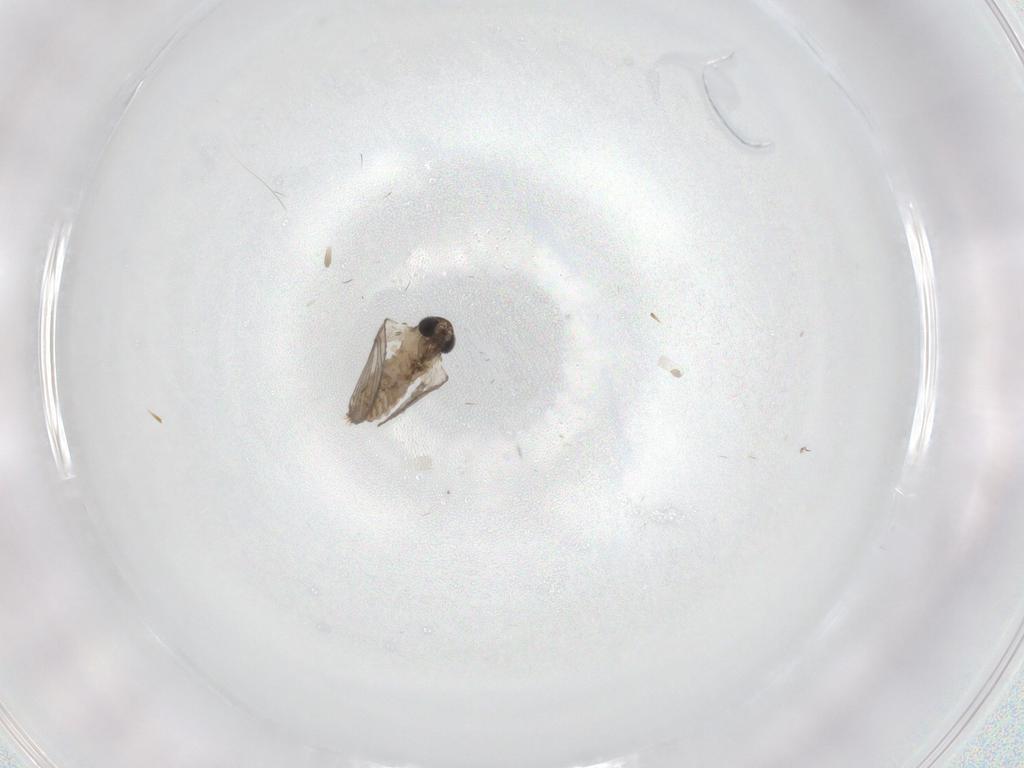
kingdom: Animalia
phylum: Arthropoda
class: Insecta
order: Diptera
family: Psychodidae
